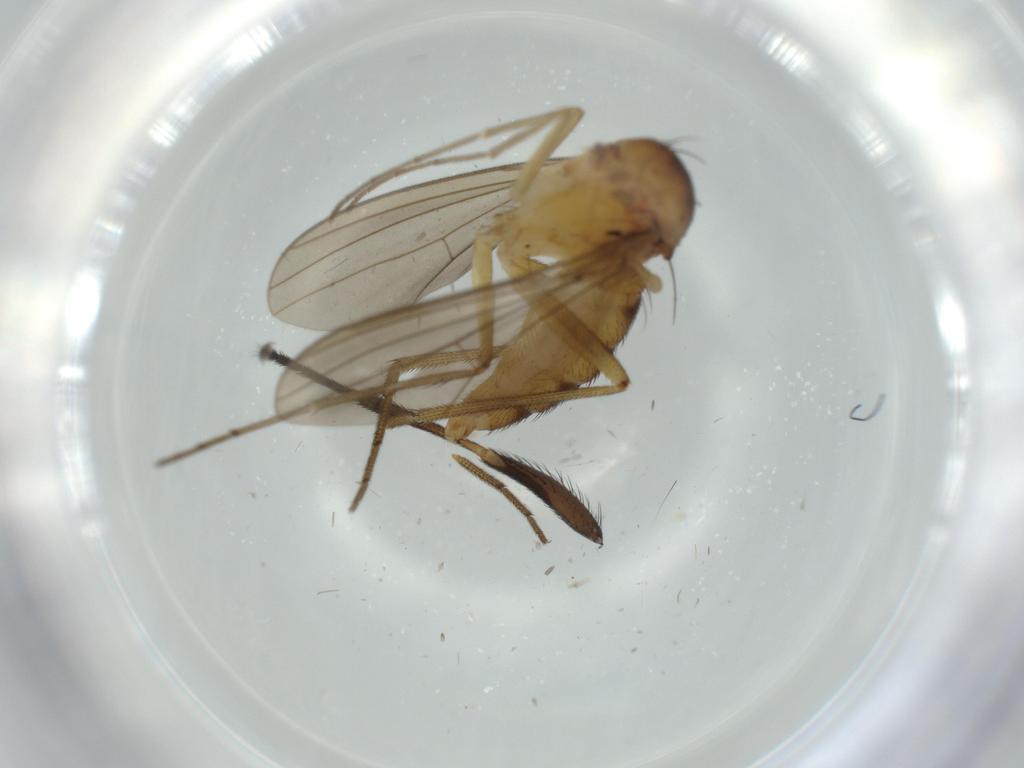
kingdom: Animalia
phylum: Arthropoda
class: Insecta
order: Diptera
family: Fannia
